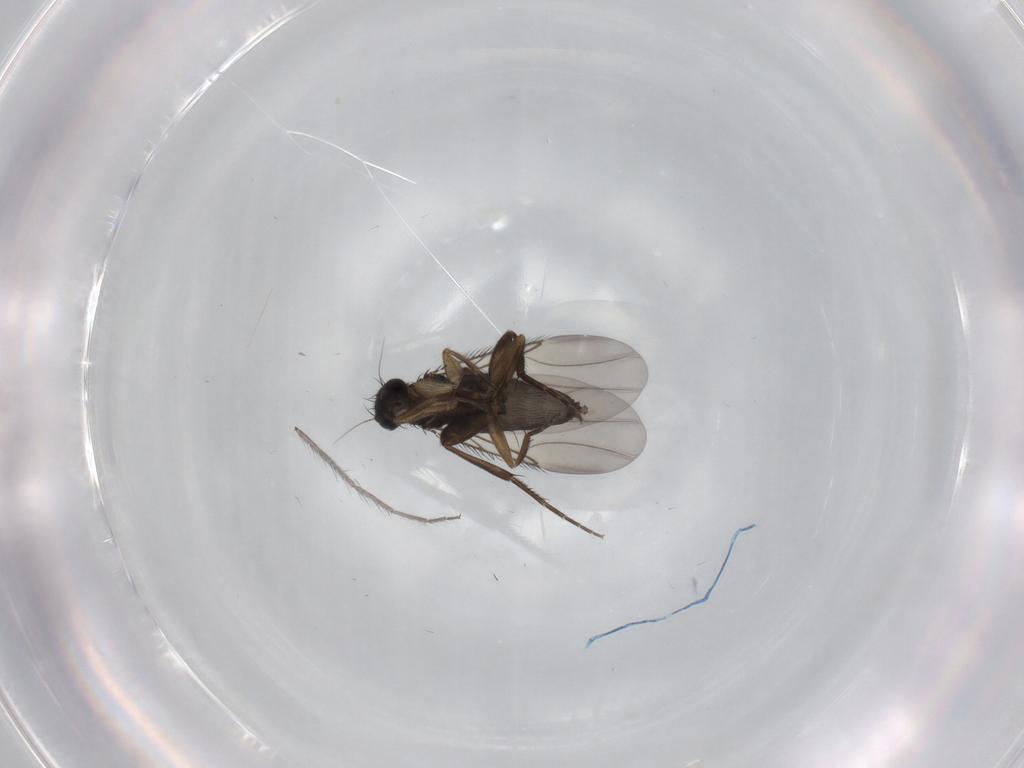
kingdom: Animalia
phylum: Arthropoda
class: Insecta
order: Diptera
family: Phoridae
